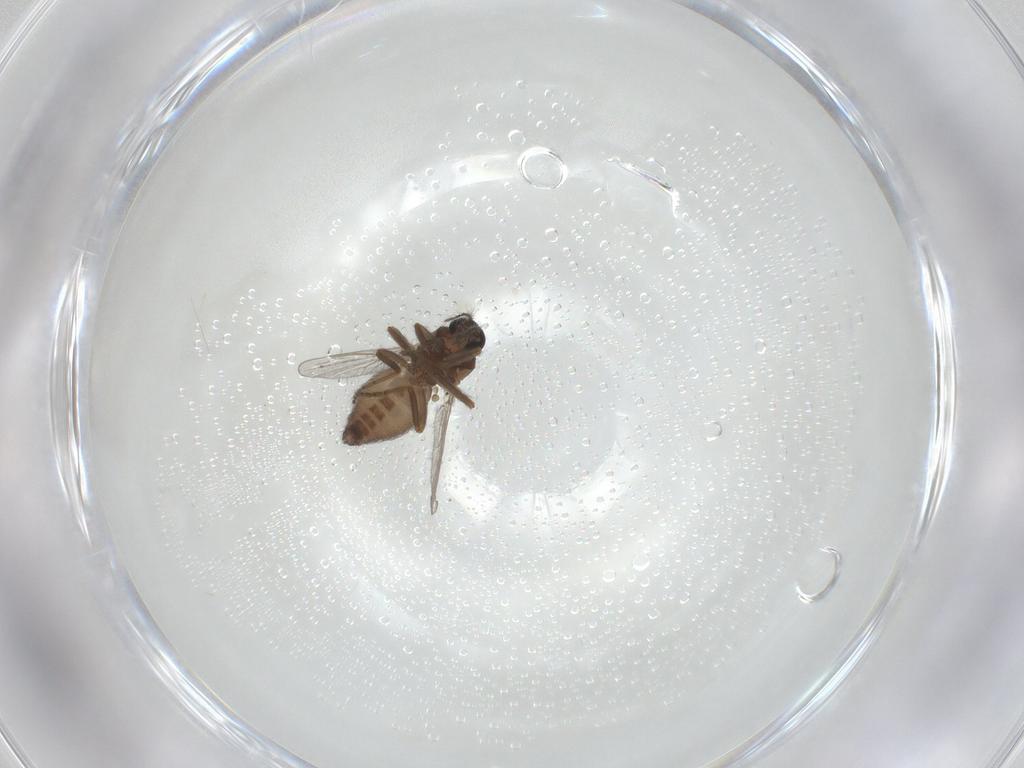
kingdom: Animalia
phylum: Arthropoda
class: Insecta
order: Diptera
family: Ceratopogonidae
